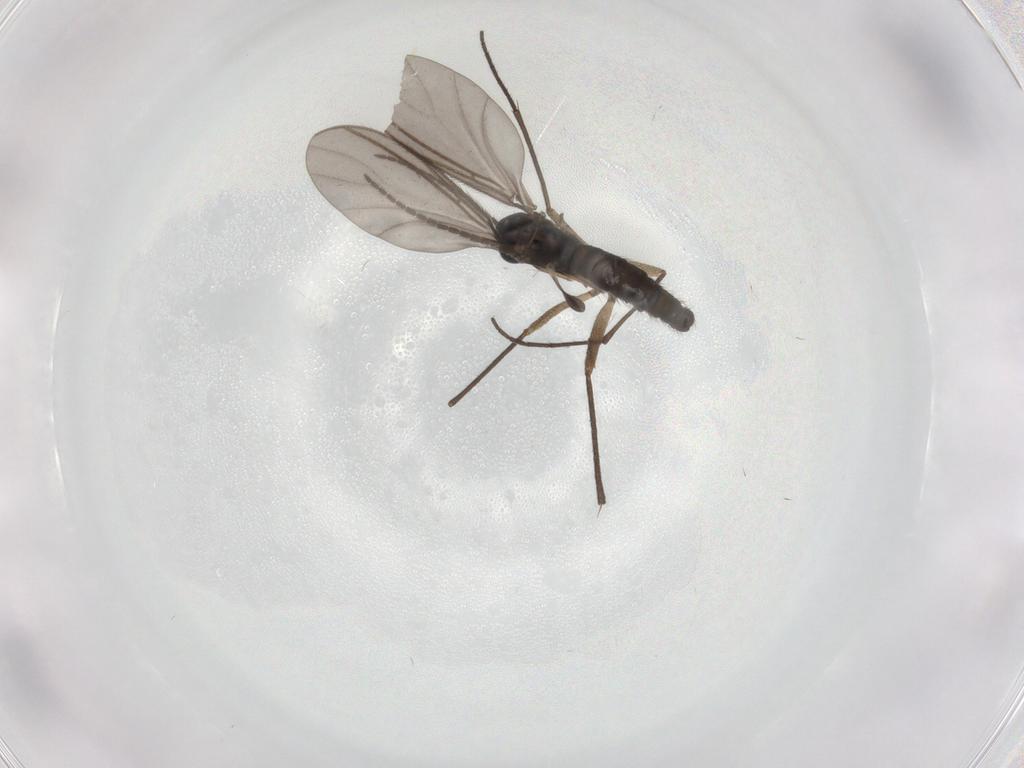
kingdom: Animalia
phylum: Arthropoda
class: Insecta
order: Diptera
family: Sciaridae
